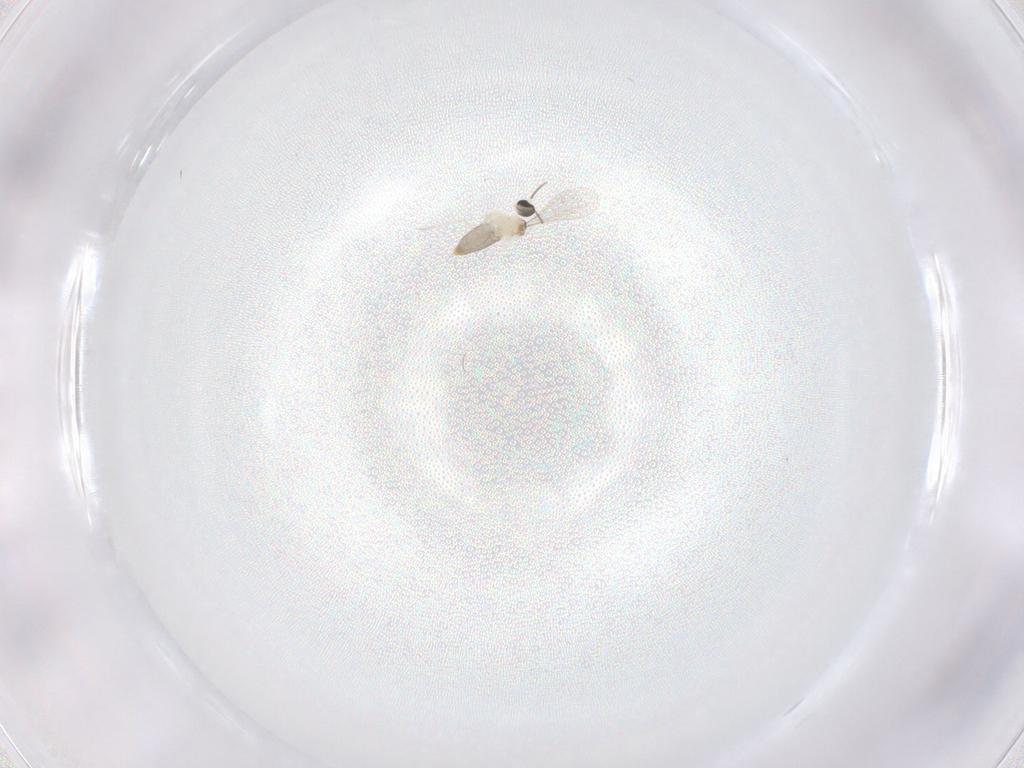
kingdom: Animalia
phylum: Arthropoda
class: Insecta
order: Diptera
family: Cecidomyiidae
